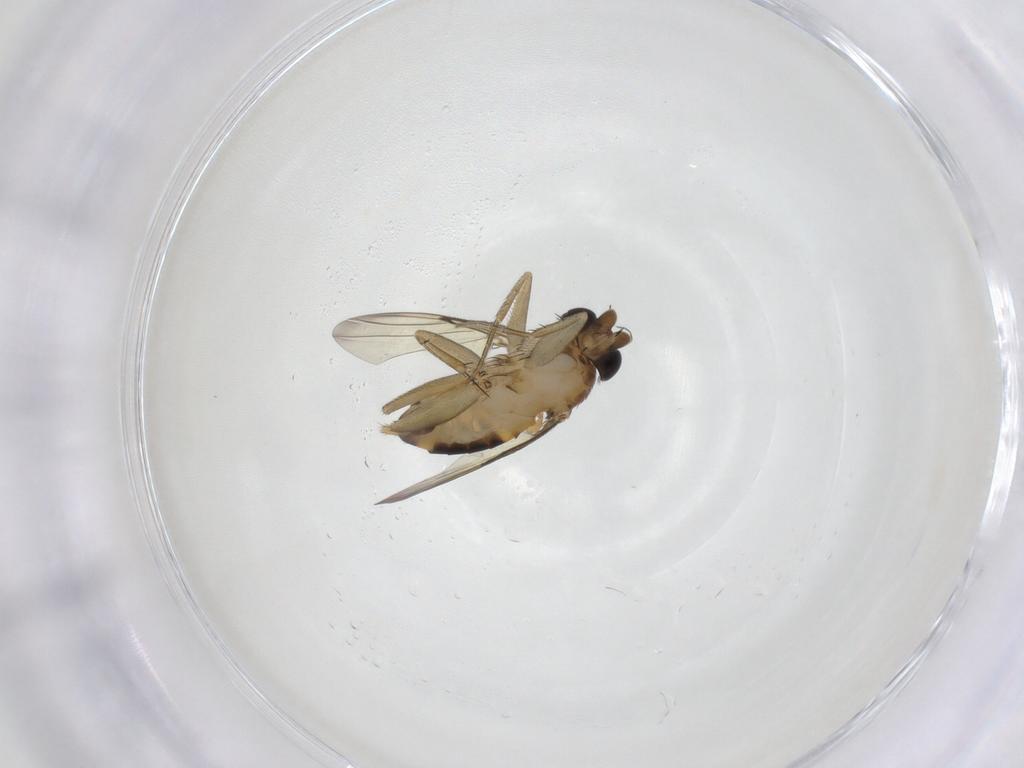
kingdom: Animalia
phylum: Arthropoda
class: Insecta
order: Diptera
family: Phoridae
